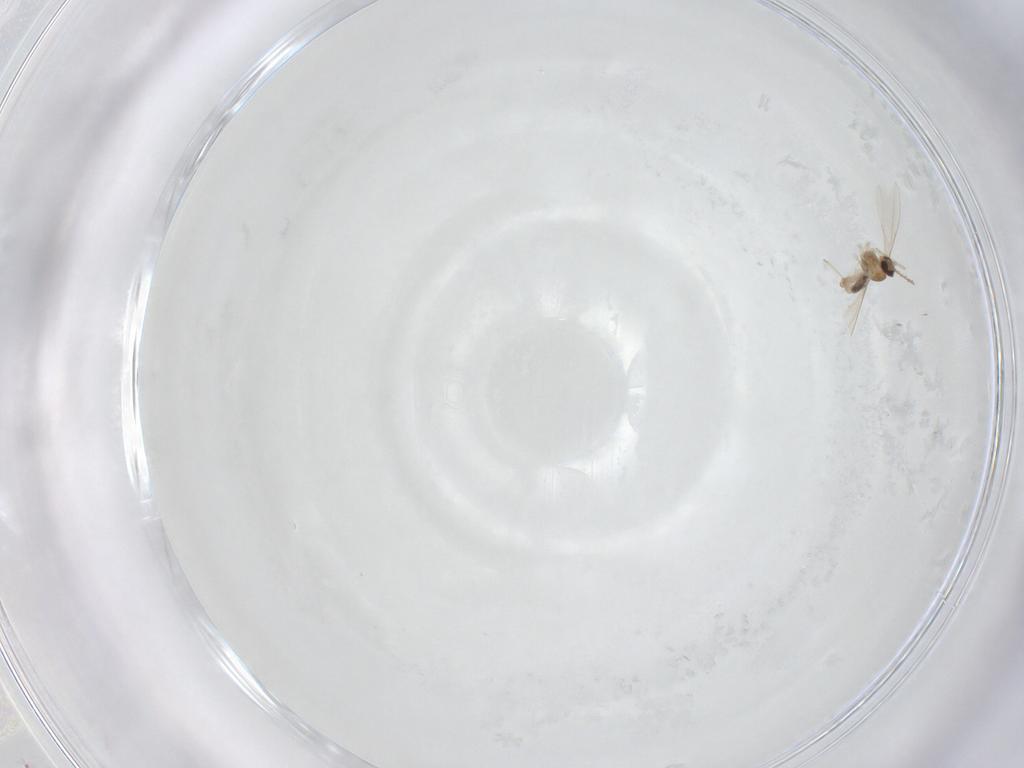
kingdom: Animalia
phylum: Arthropoda
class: Insecta
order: Diptera
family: Cecidomyiidae
